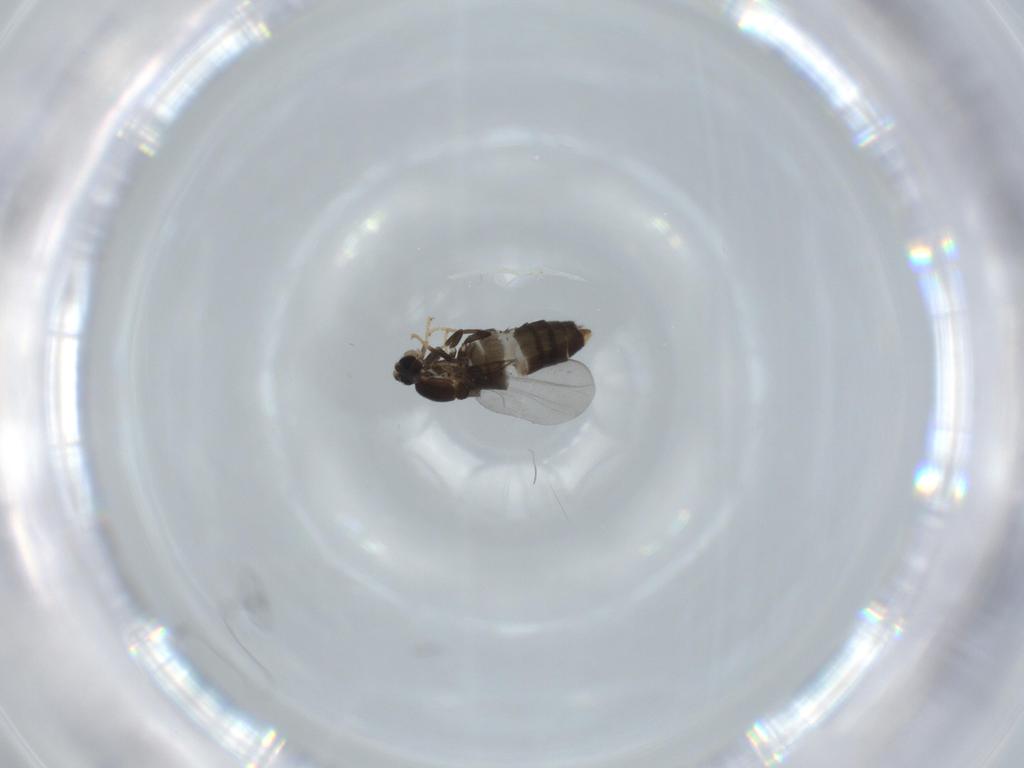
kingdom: Animalia
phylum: Arthropoda
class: Insecta
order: Diptera
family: Scatopsidae
